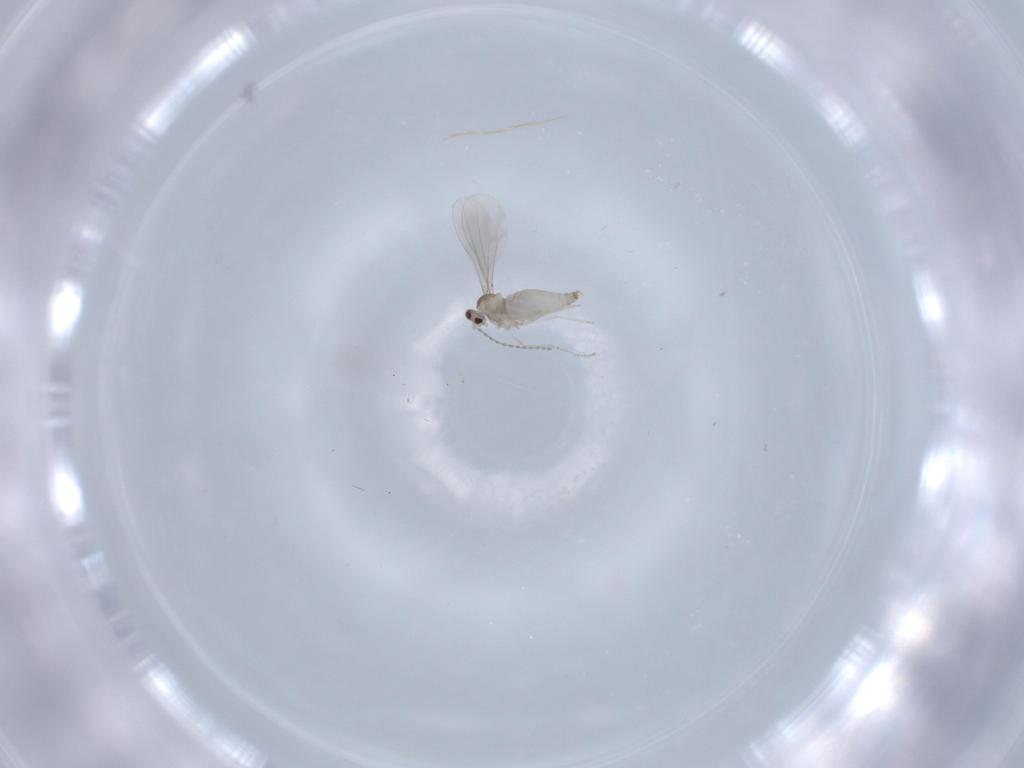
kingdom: Animalia
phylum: Arthropoda
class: Insecta
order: Diptera
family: Cecidomyiidae
